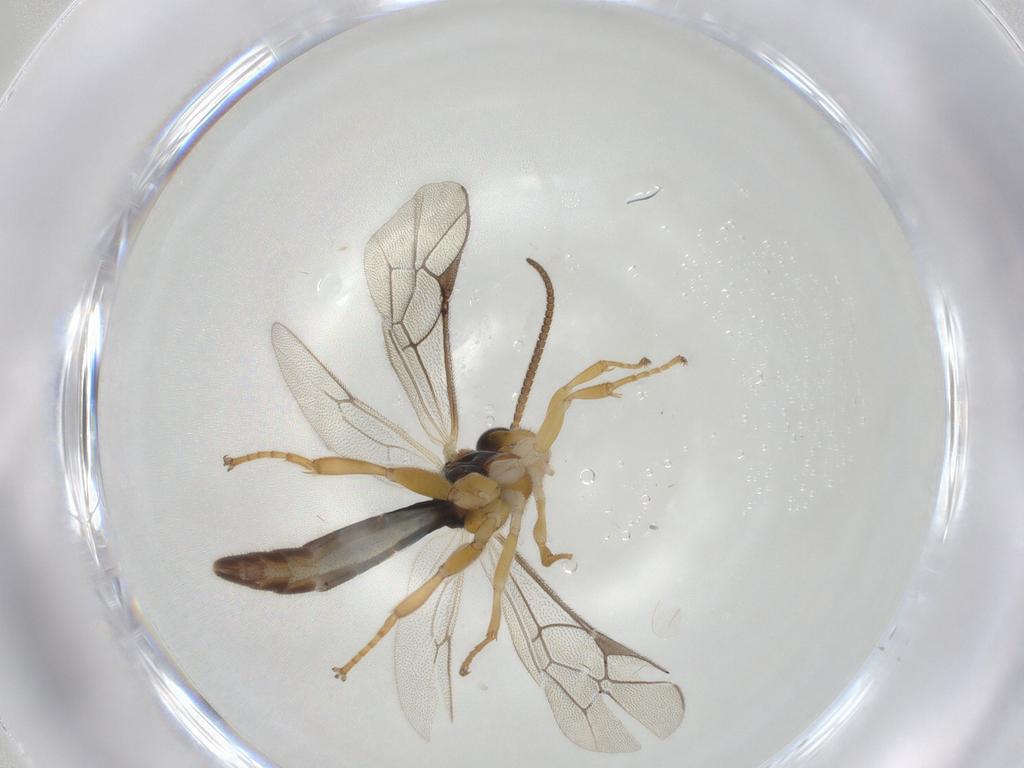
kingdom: Animalia
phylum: Arthropoda
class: Insecta
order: Hymenoptera
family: Ichneumonidae
